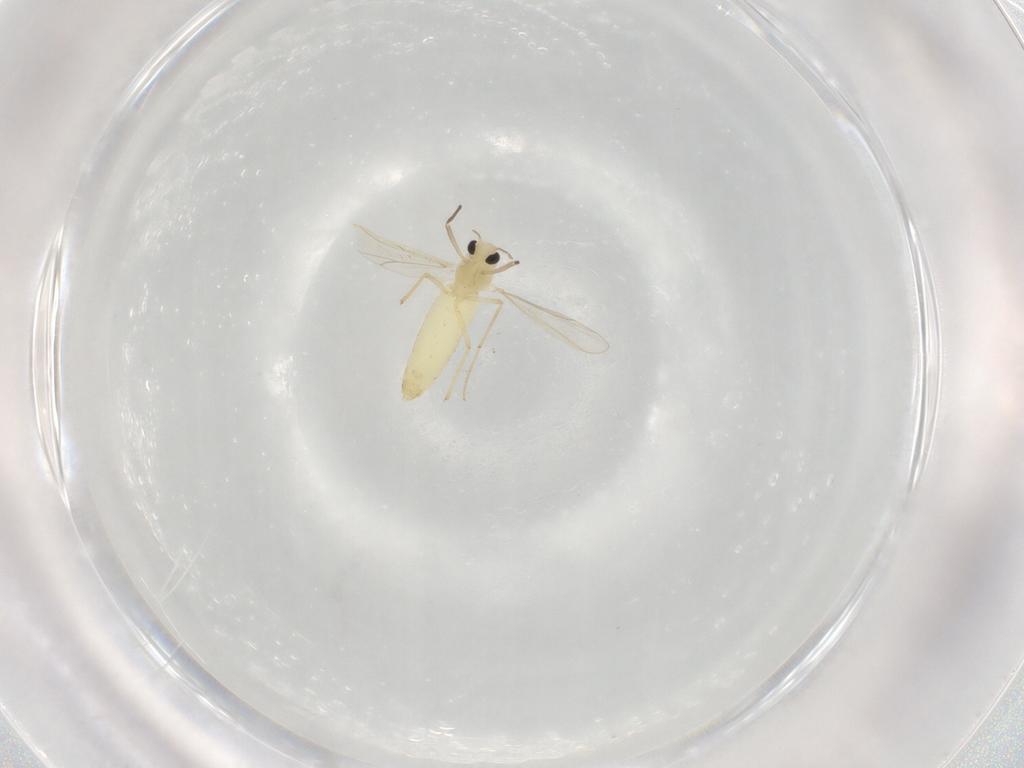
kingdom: Animalia
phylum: Arthropoda
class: Insecta
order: Diptera
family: Chironomidae
